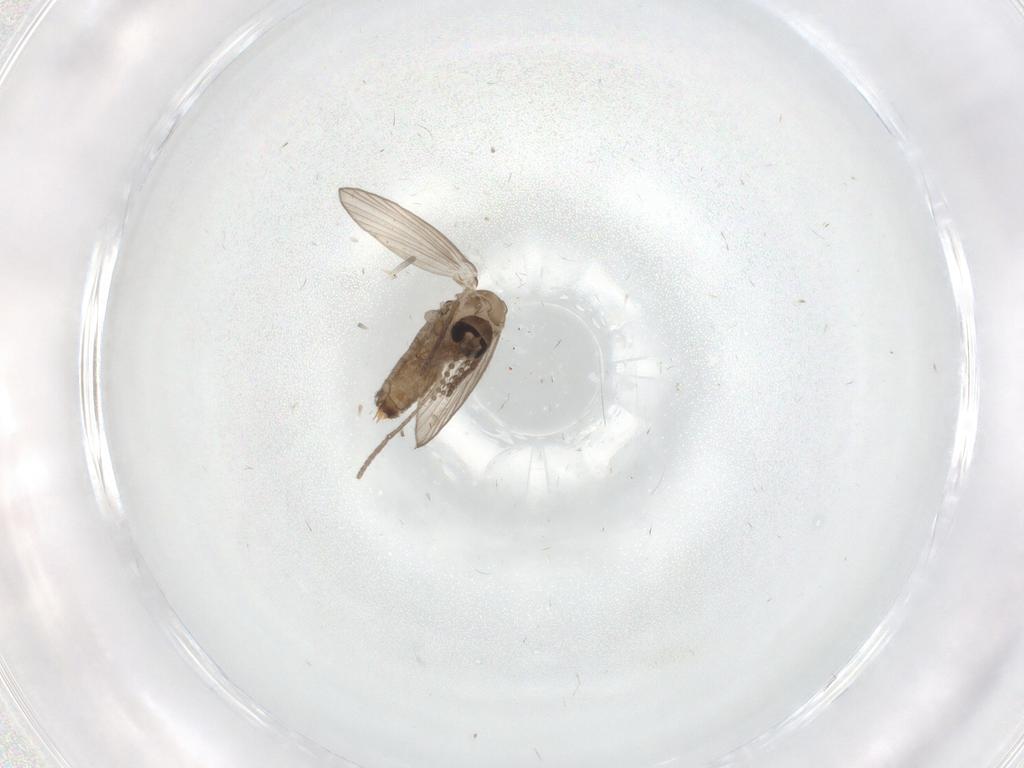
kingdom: Animalia
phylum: Arthropoda
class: Insecta
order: Diptera
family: Psychodidae
